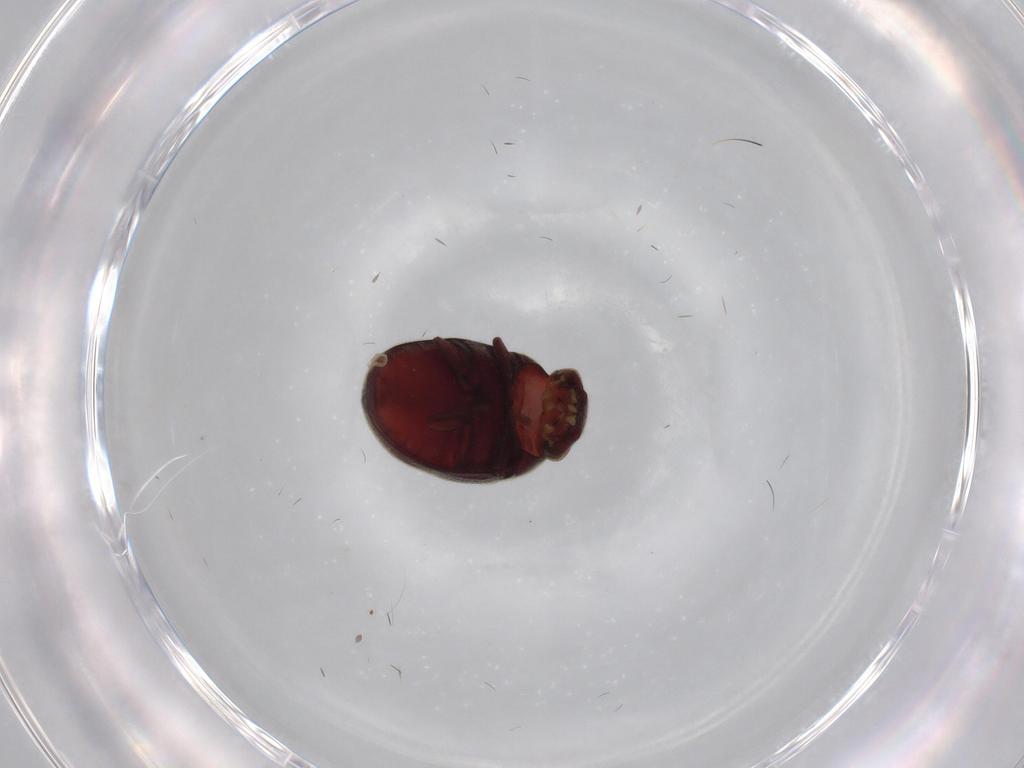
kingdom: Animalia
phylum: Arthropoda
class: Insecta
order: Coleoptera
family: Ptinidae
